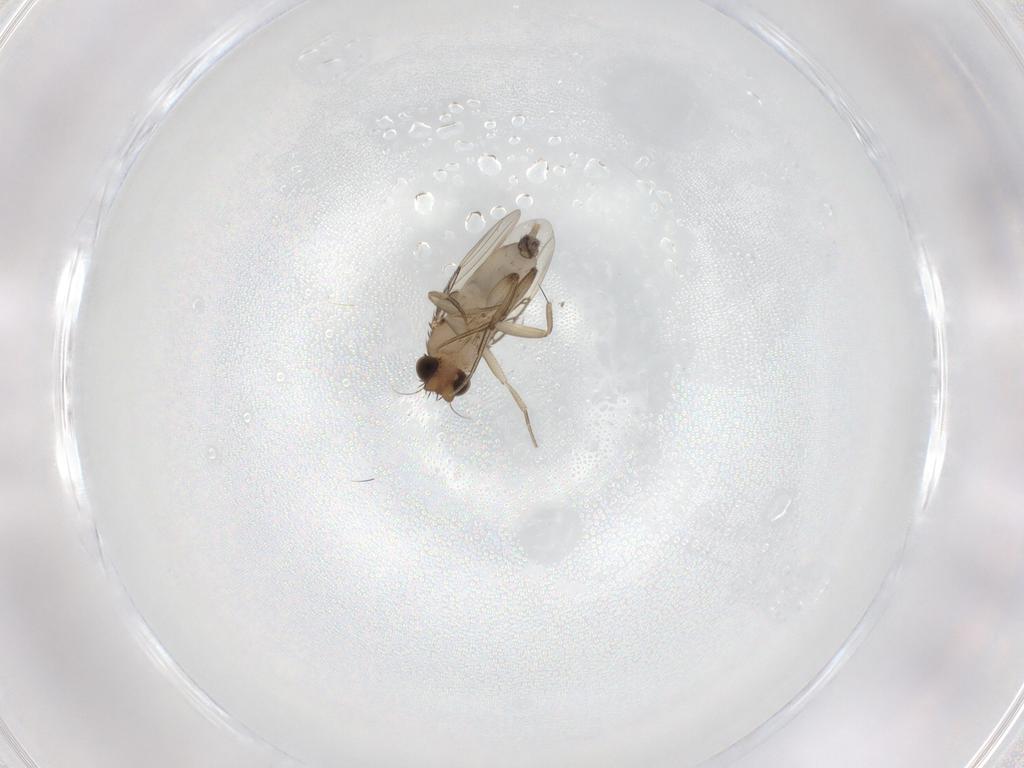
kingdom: Animalia
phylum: Arthropoda
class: Insecta
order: Diptera
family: Phoridae
